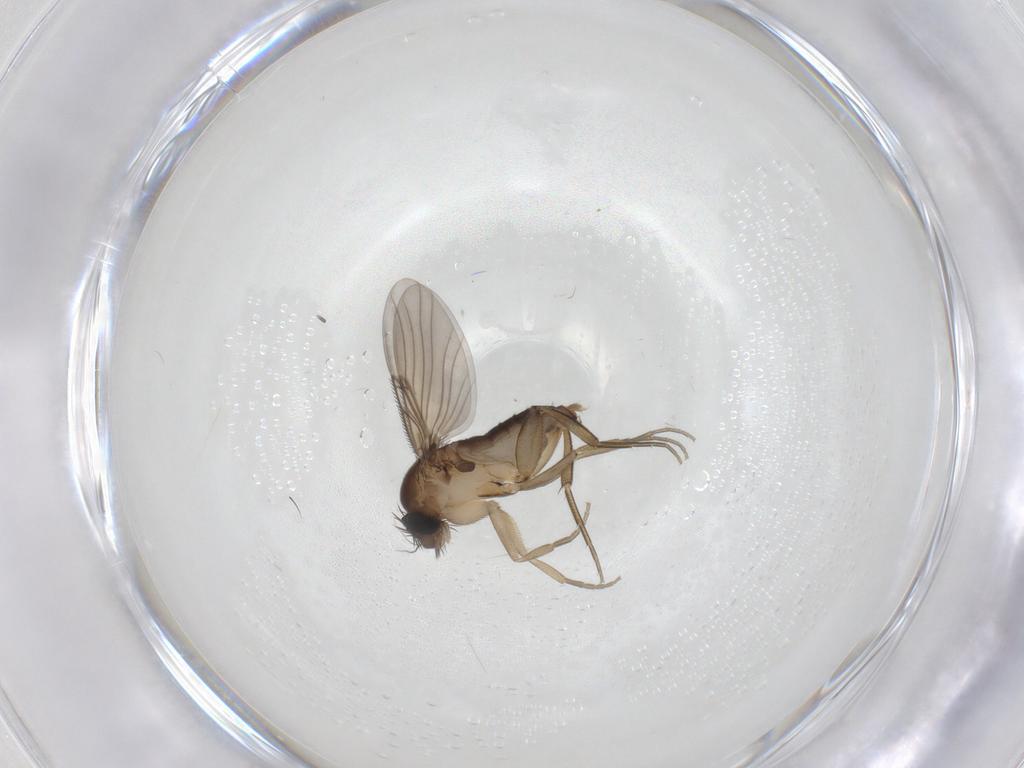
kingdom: Animalia
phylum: Arthropoda
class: Insecta
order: Diptera
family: Phoridae
